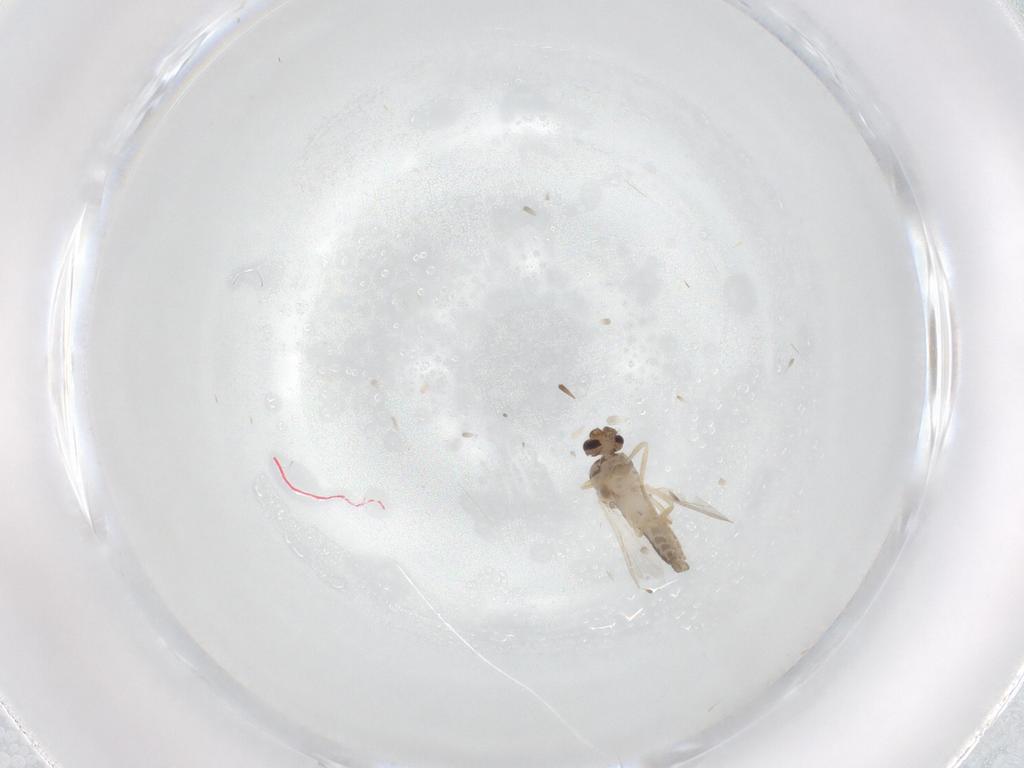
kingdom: Animalia
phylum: Arthropoda
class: Insecta
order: Diptera
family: Ceratopogonidae
